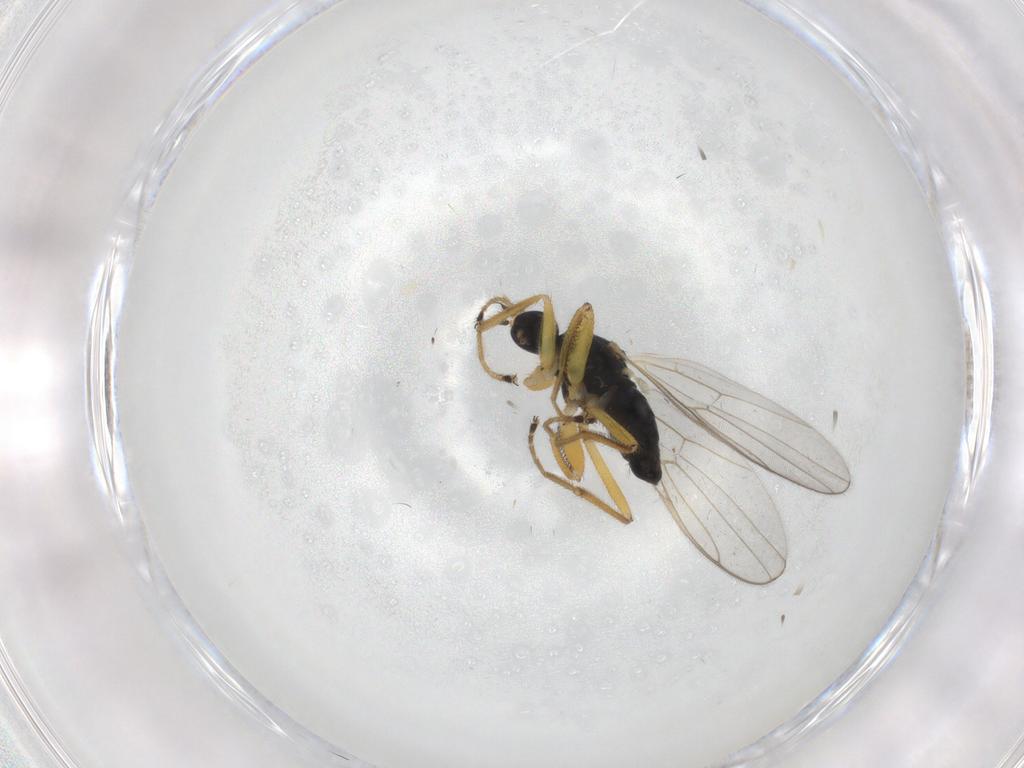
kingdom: Animalia
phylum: Arthropoda
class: Insecta
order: Diptera
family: Hybotidae
